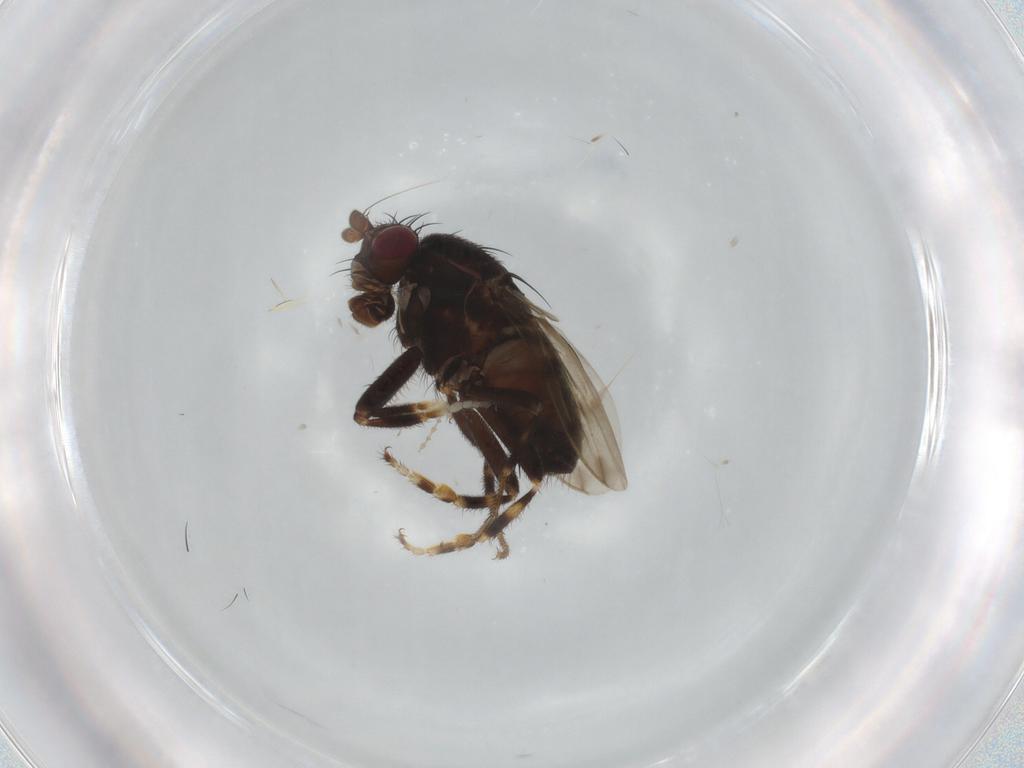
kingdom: Animalia
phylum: Arthropoda
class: Insecta
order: Diptera
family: Sphaeroceridae
